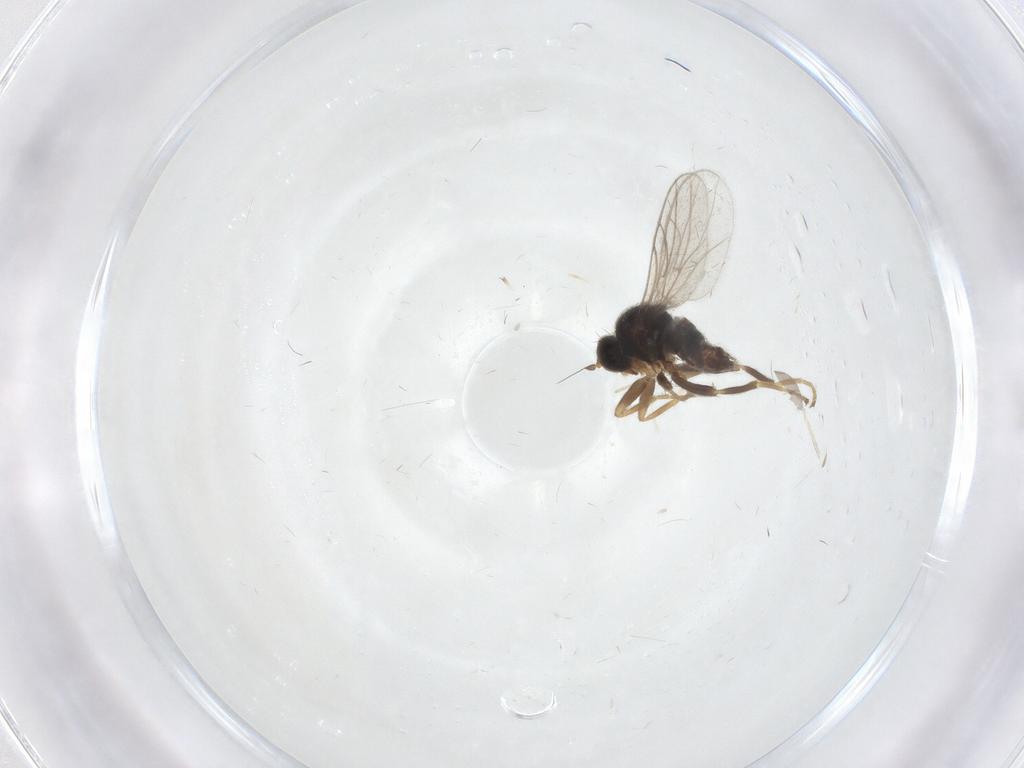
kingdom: Animalia
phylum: Arthropoda
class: Insecta
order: Diptera
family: Hybotidae
